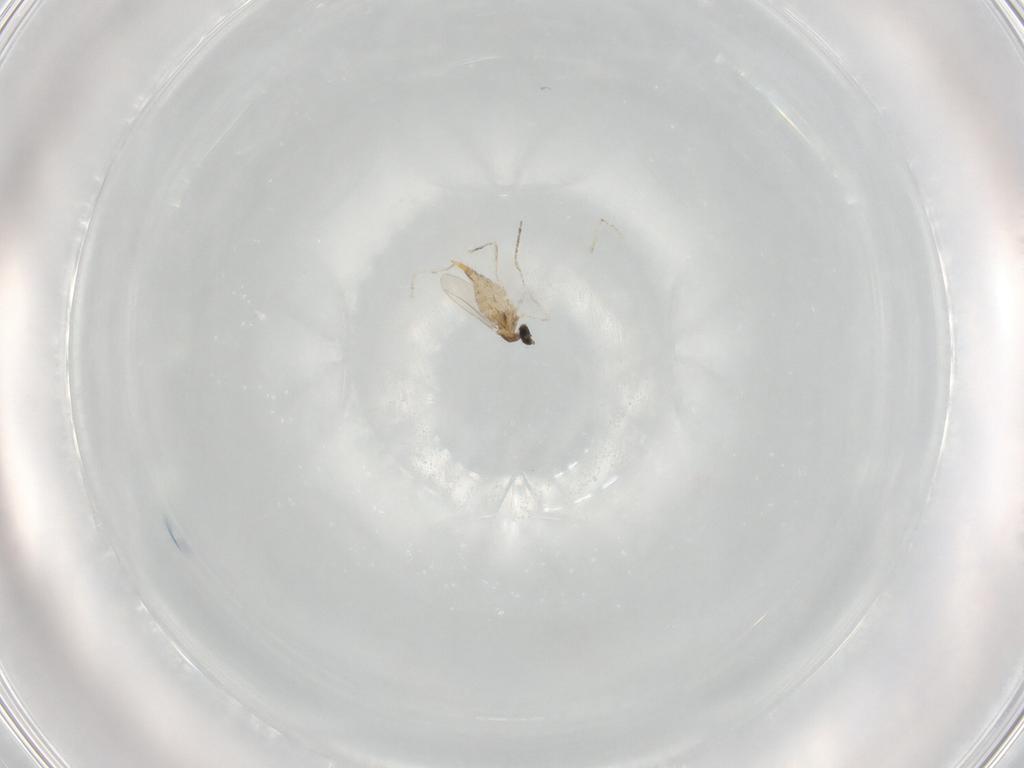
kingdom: Animalia
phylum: Arthropoda
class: Insecta
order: Diptera
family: Cecidomyiidae
